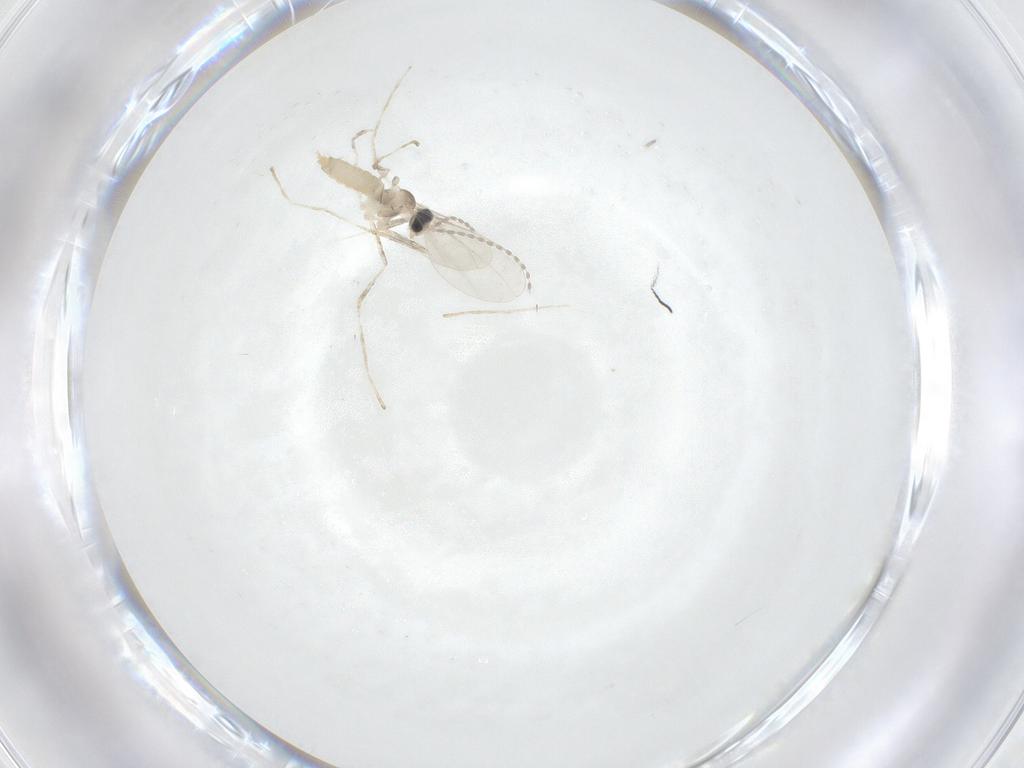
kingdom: Animalia
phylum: Arthropoda
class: Insecta
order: Diptera
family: Cecidomyiidae
